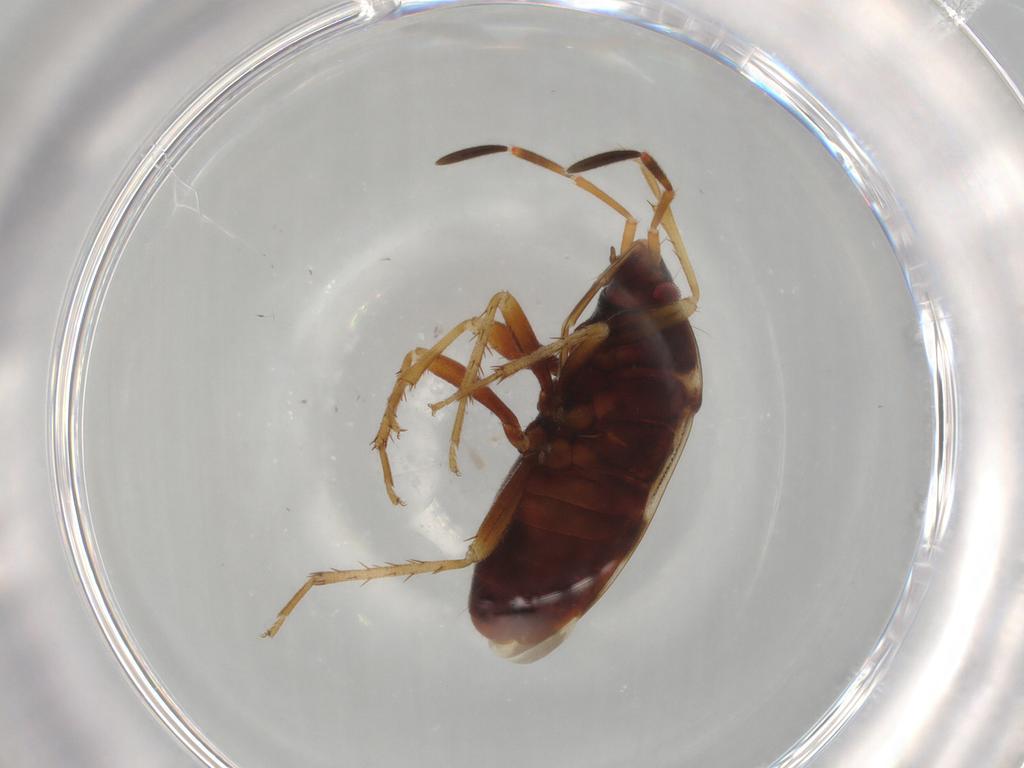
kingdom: Animalia
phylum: Arthropoda
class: Insecta
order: Hemiptera
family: Rhyparochromidae
